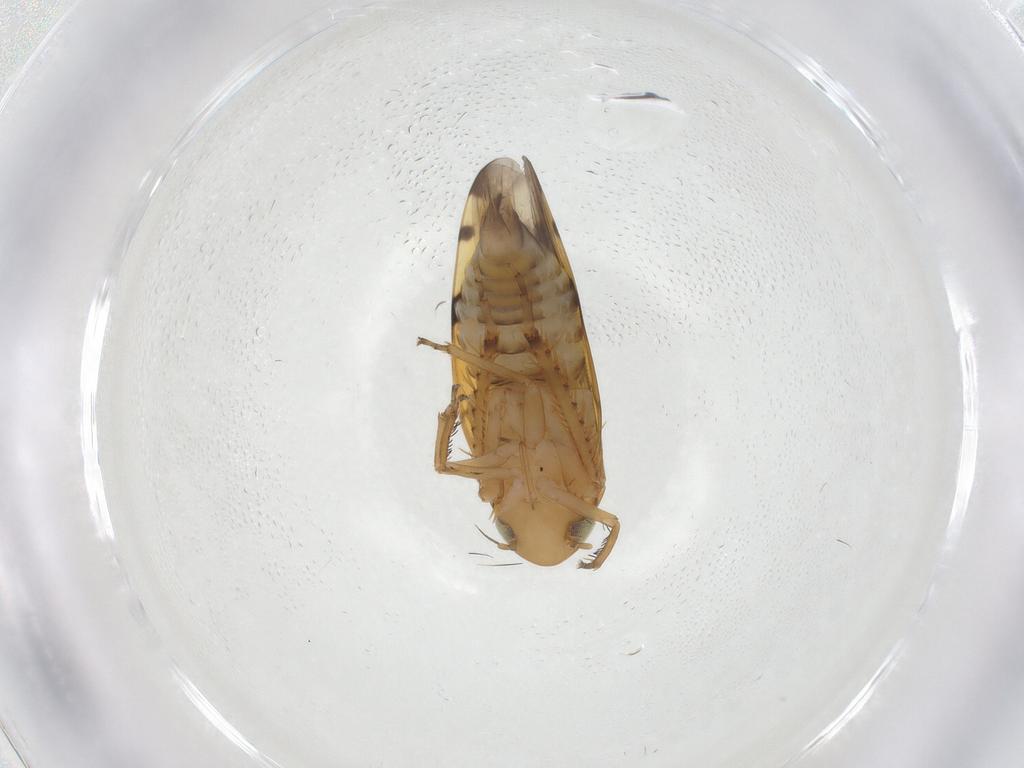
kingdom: Animalia
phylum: Arthropoda
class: Insecta
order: Hemiptera
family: Cicadellidae
